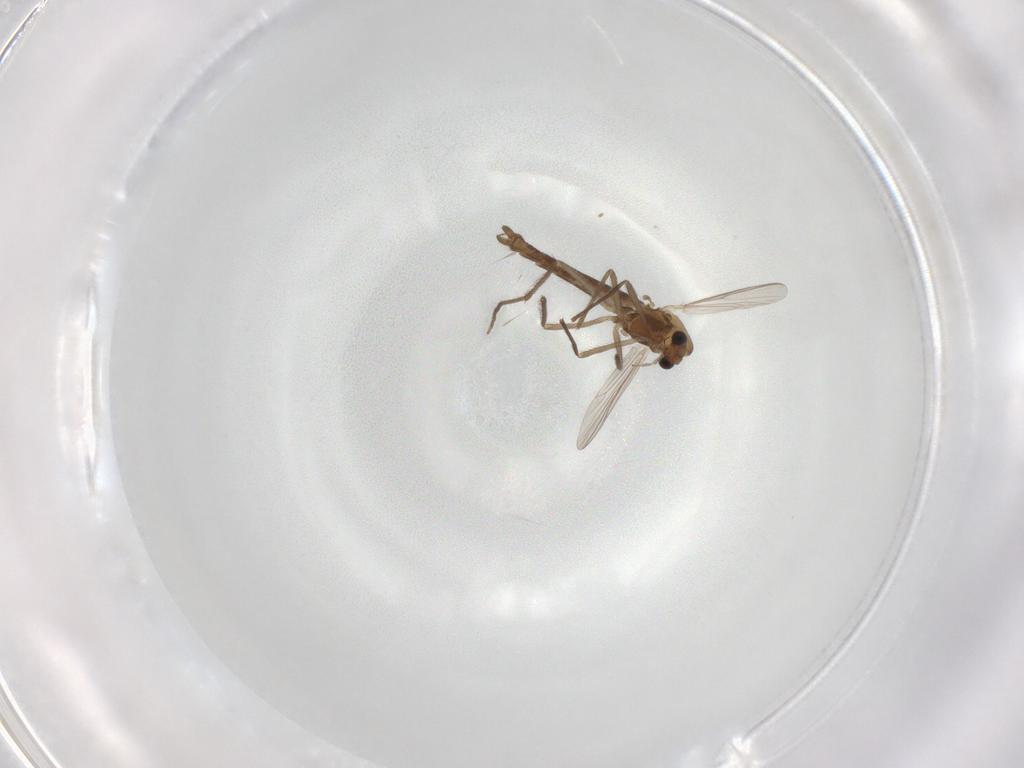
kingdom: Animalia
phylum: Arthropoda
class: Insecta
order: Diptera
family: Chironomidae
